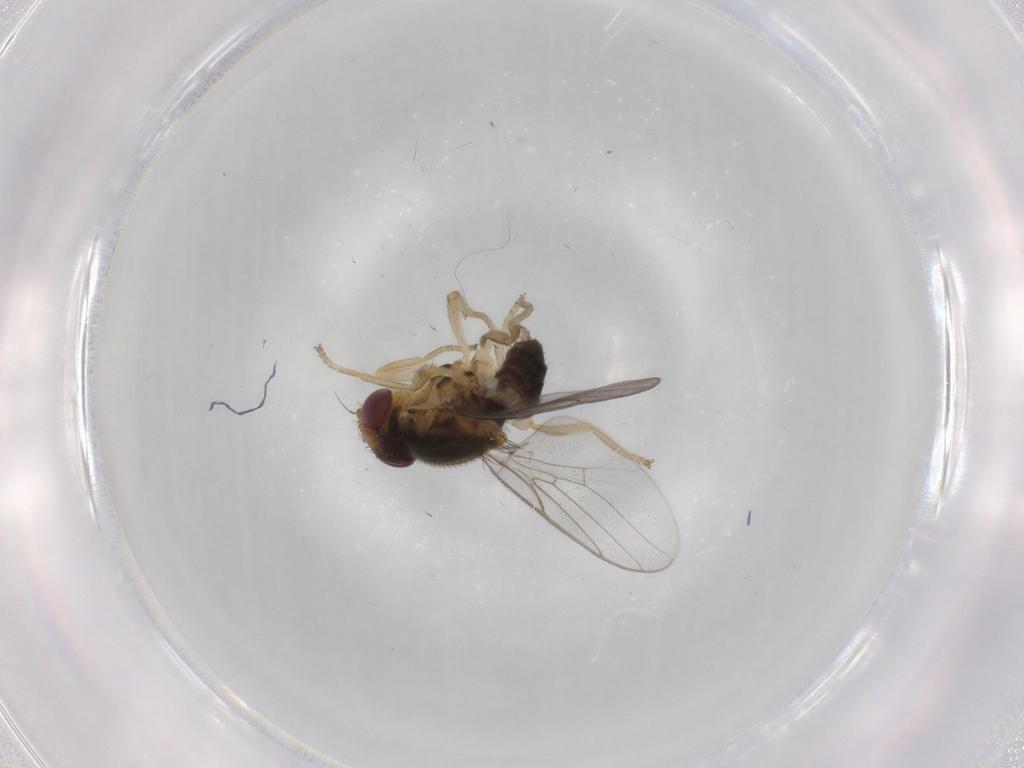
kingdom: Animalia
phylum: Arthropoda
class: Insecta
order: Diptera
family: Chloropidae
